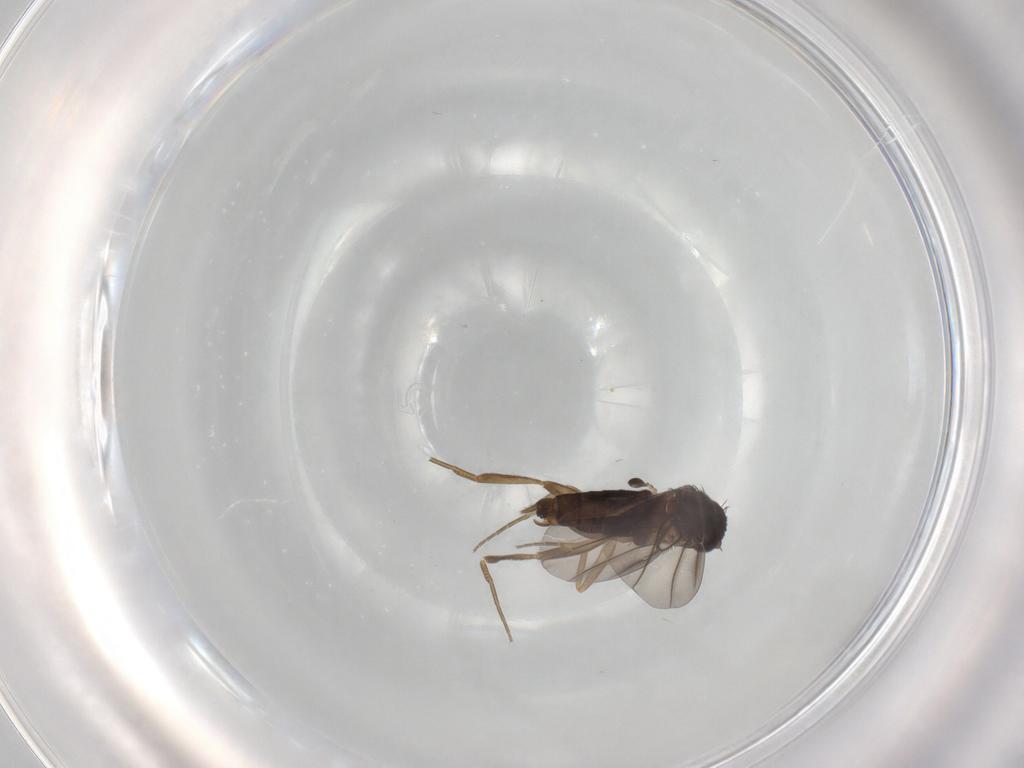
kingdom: Animalia
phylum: Arthropoda
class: Insecta
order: Diptera
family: Phoridae
